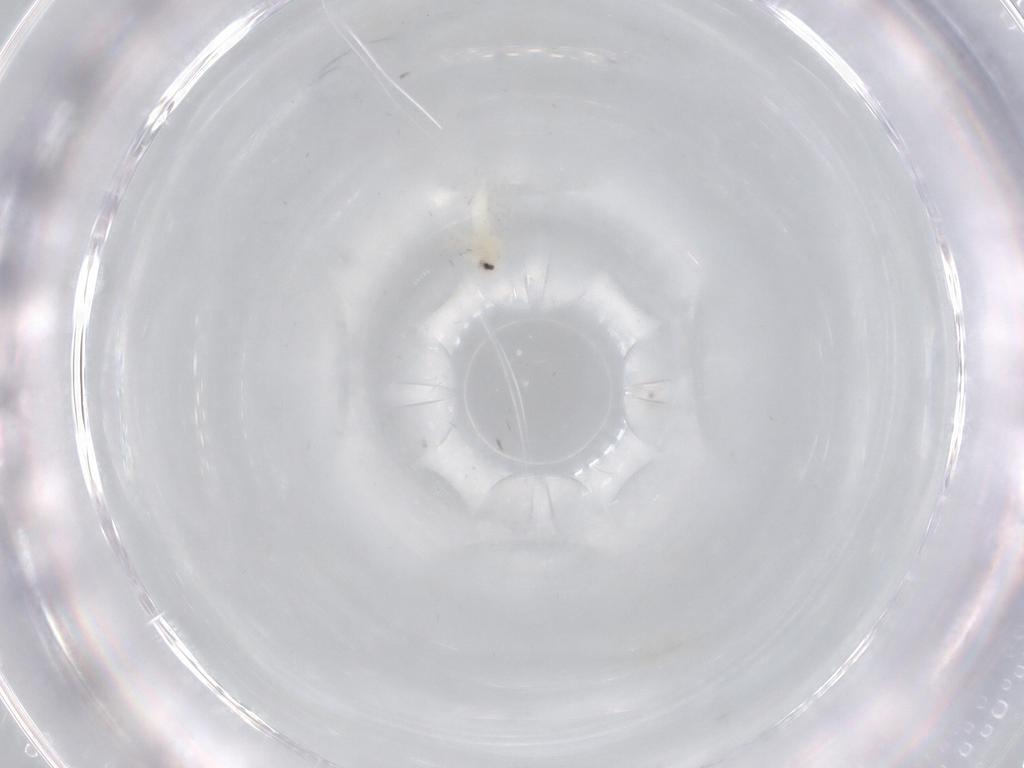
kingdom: Animalia
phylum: Arthropoda
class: Insecta
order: Hemiptera
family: Aleyrodidae
